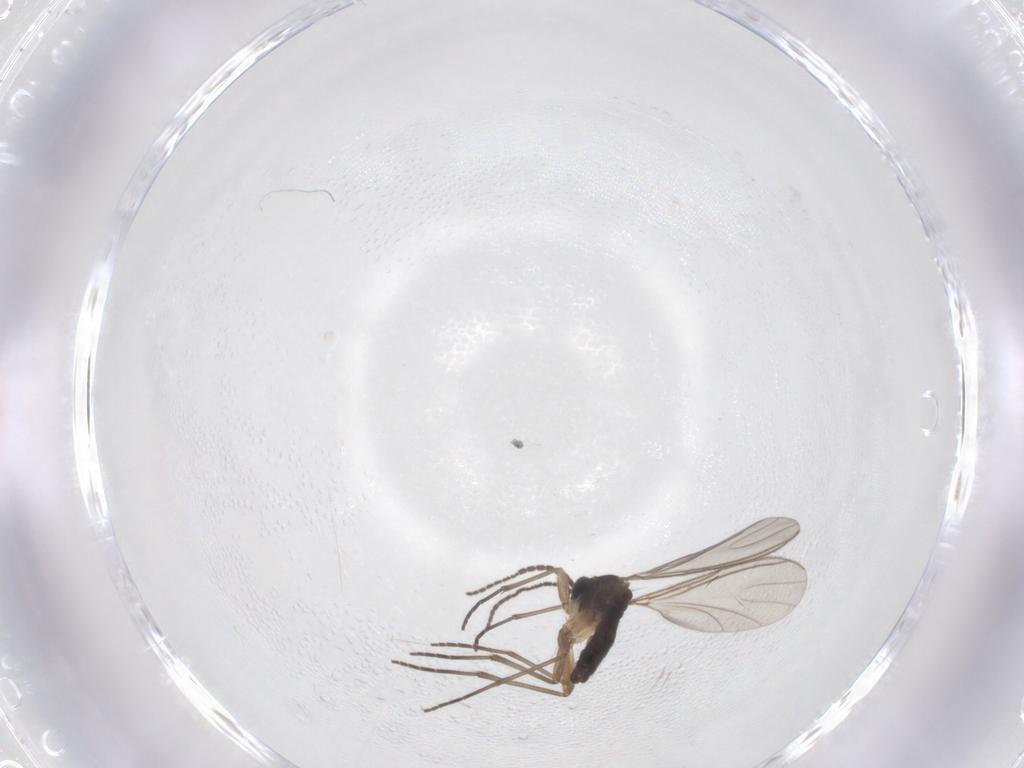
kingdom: Animalia
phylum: Arthropoda
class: Insecta
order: Diptera
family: Sciaridae
